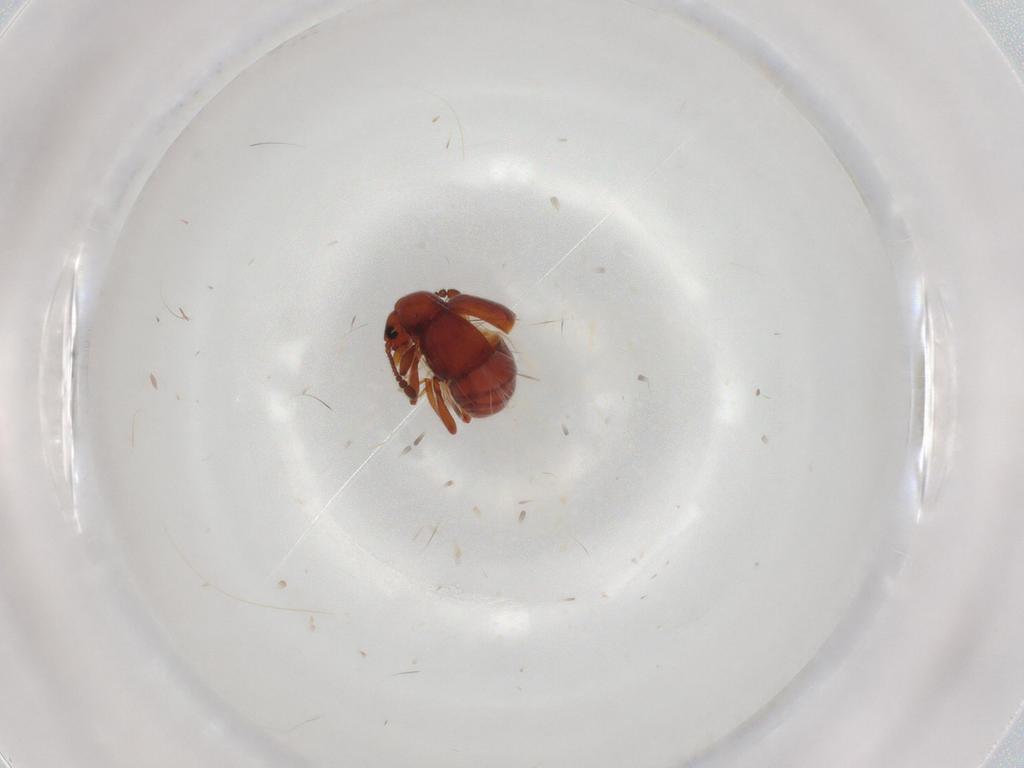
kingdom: Animalia
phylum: Arthropoda
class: Insecta
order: Coleoptera
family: Staphylinidae
